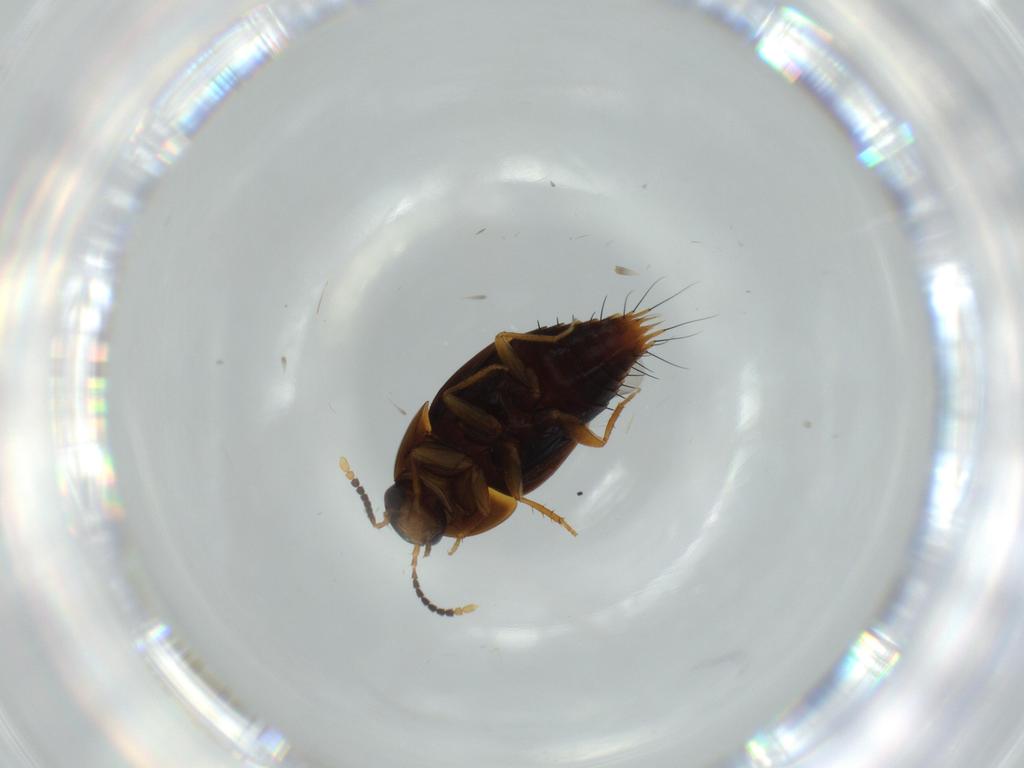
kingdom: Animalia
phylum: Arthropoda
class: Insecta
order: Coleoptera
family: Staphylinidae
